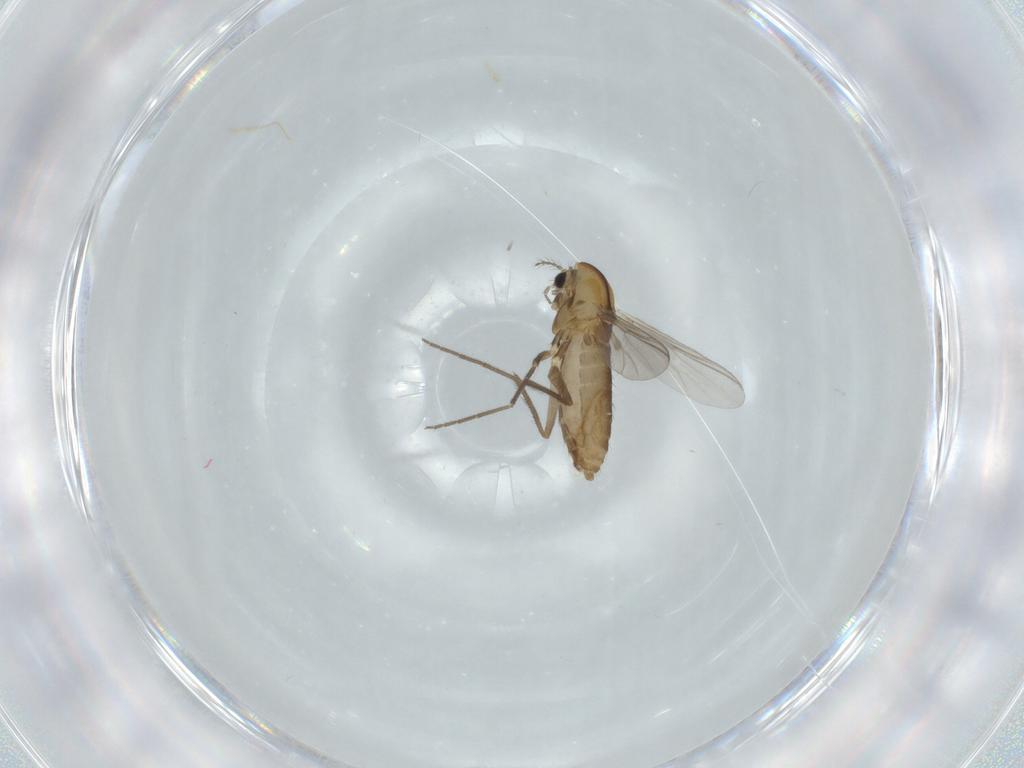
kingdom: Animalia
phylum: Arthropoda
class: Insecta
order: Diptera
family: Chironomidae
